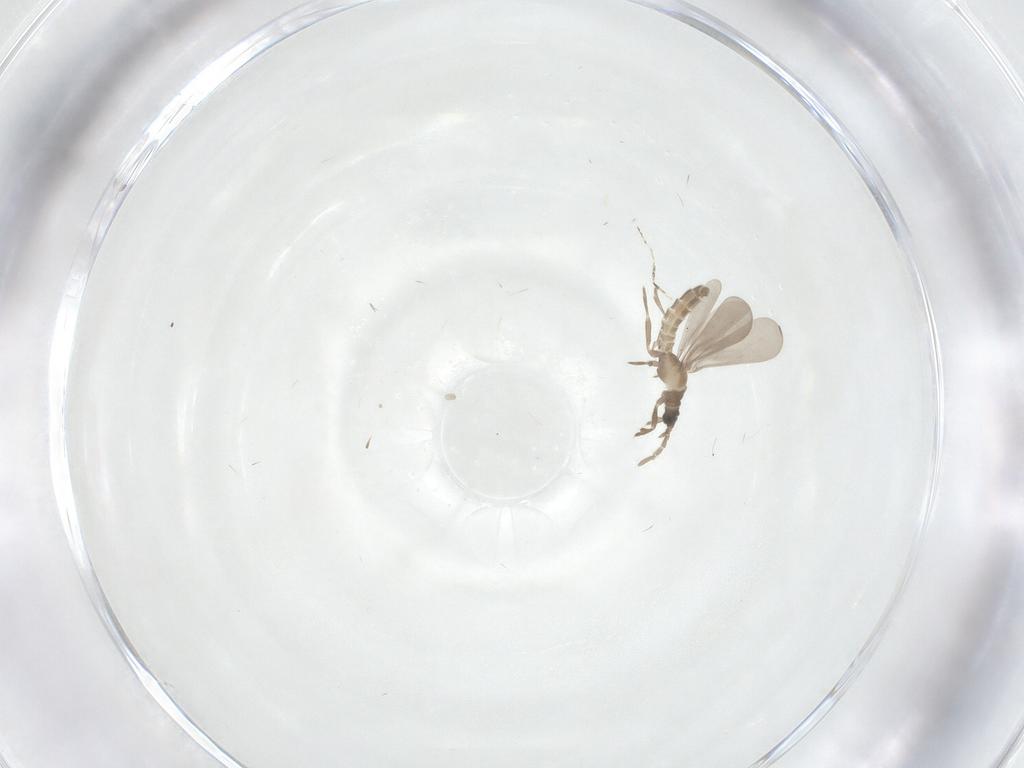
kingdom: Animalia
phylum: Arthropoda
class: Insecta
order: Diptera
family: Ceratopogonidae
